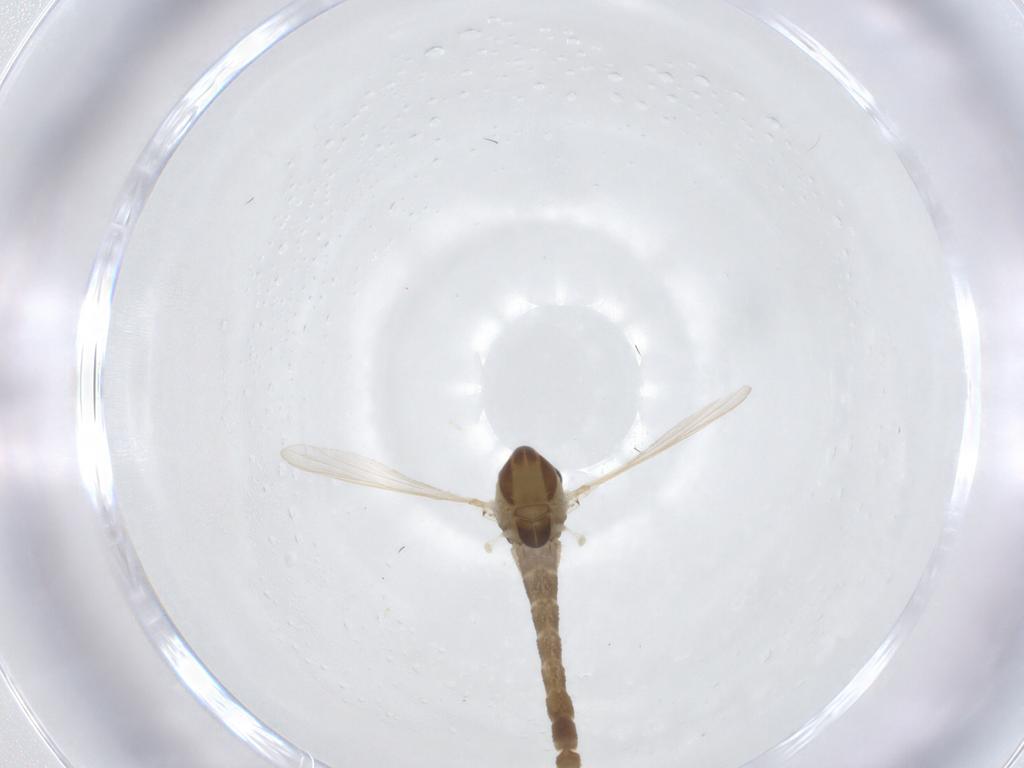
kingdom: Animalia
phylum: Arthropoda
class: Insecta
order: Diptera
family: Chironomidae
